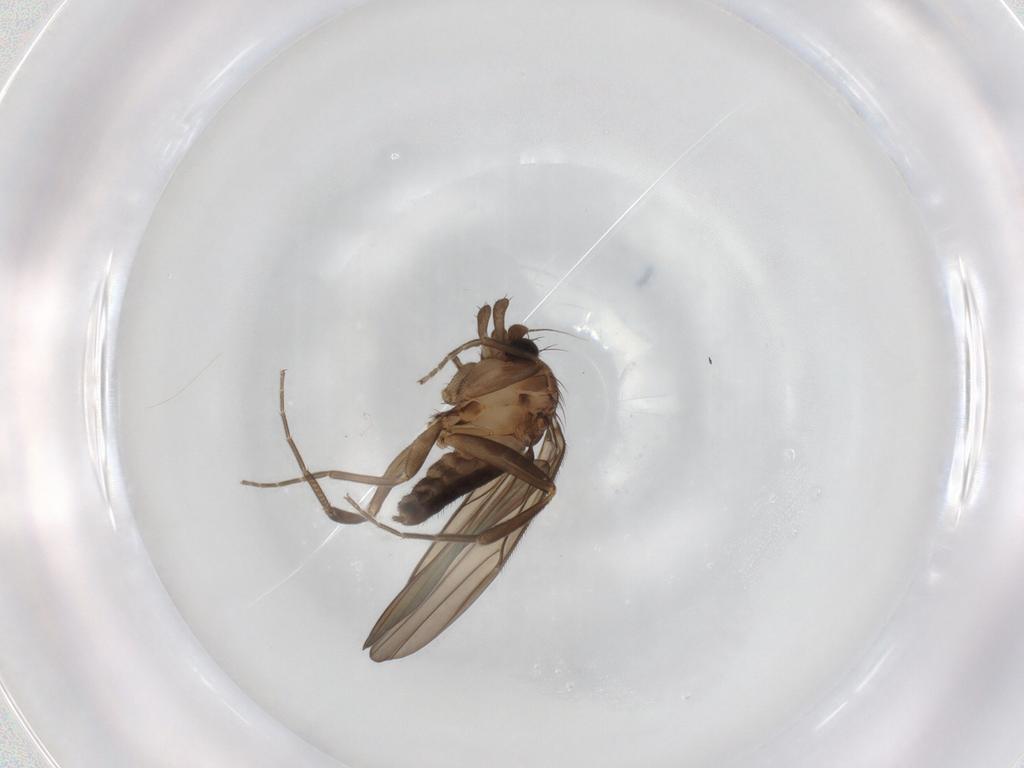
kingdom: Animalia
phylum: Arthropoda
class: Insecta
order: Diptera
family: Phoridae
